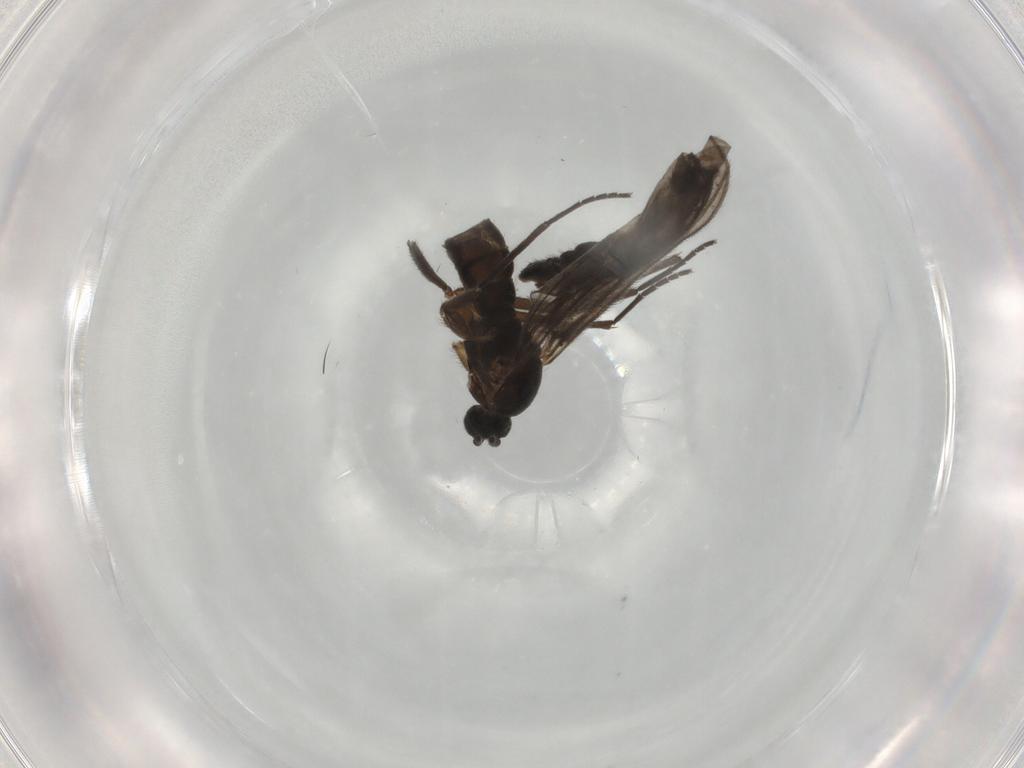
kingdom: Animalia
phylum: Arthropoda
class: Insecta
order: Diptera
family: Sciaridae
